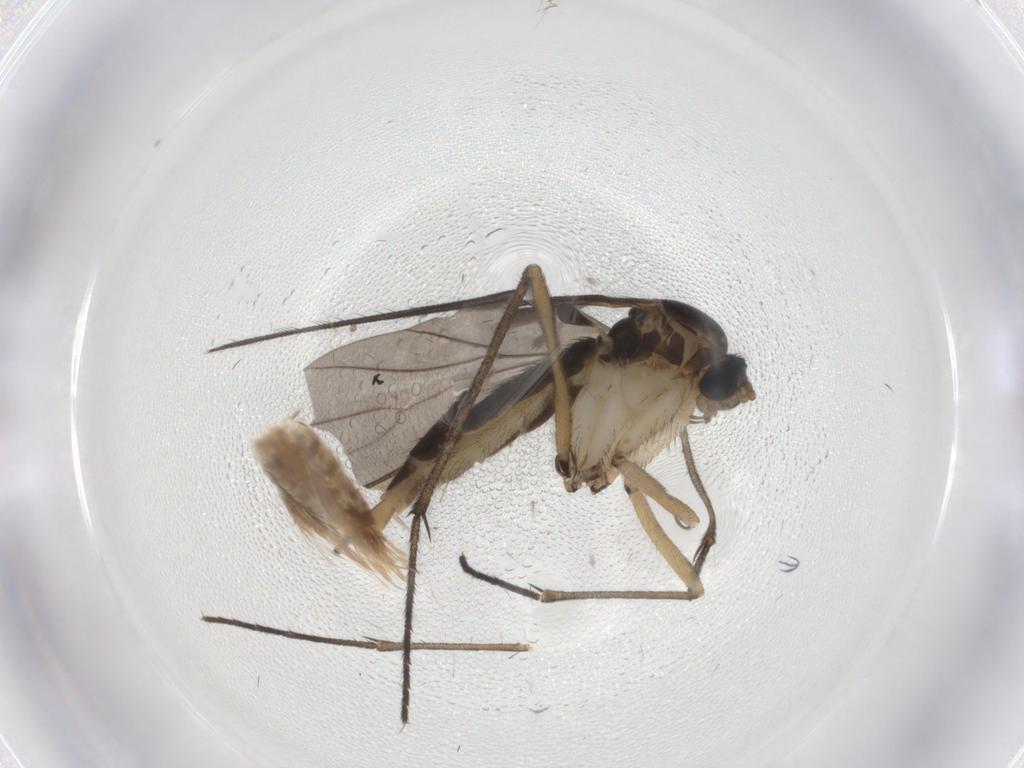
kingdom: Animalia
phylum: Arthropoda
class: Insecta
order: Diptera
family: Sciaridae
